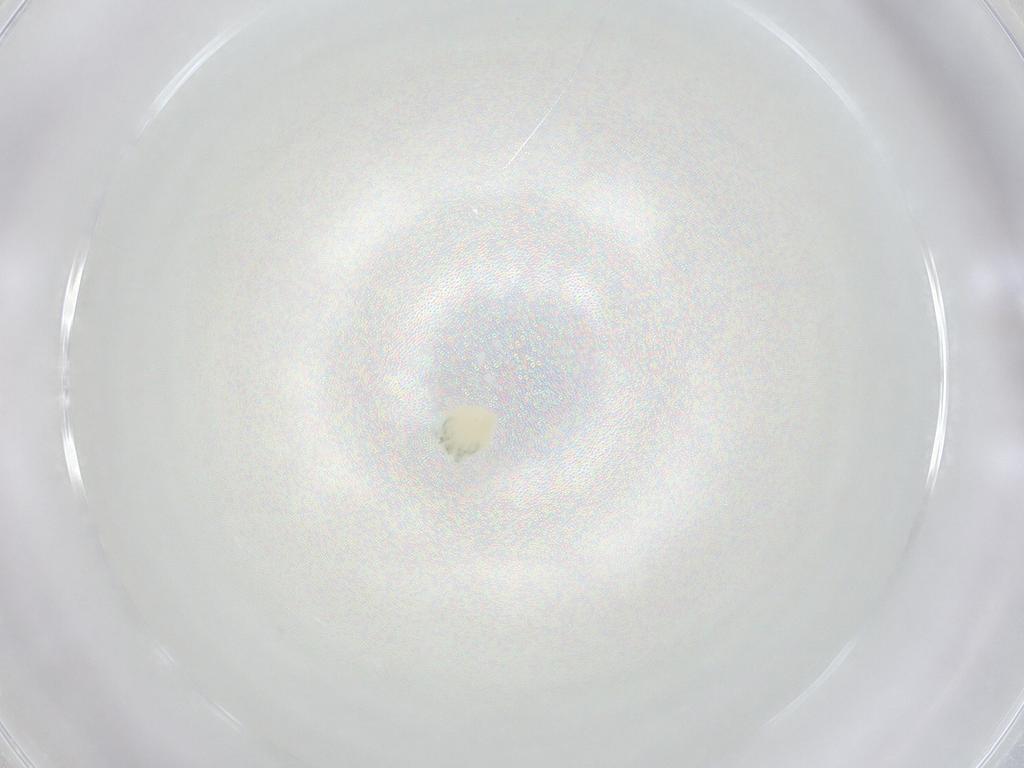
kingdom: Animalia
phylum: Arthropoda
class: Arachnida
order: Trombidiformes
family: Arrenuridae
